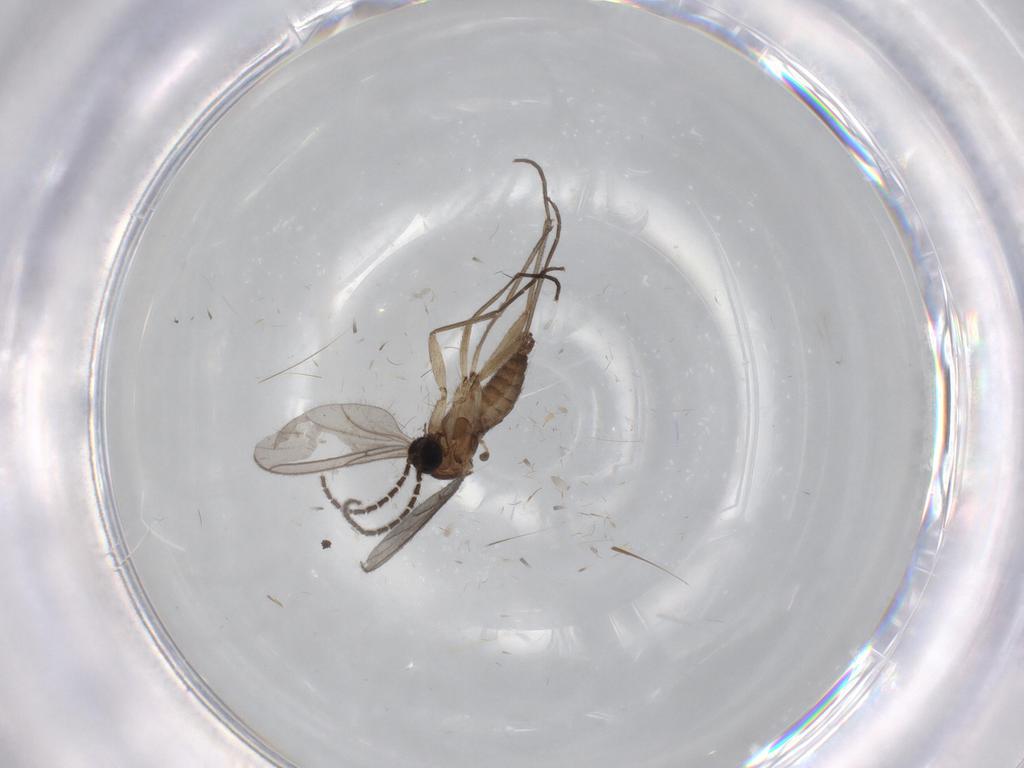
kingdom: Animalia
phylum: Arthropoda
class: Insecta
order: Diptera
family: Sciaridae
